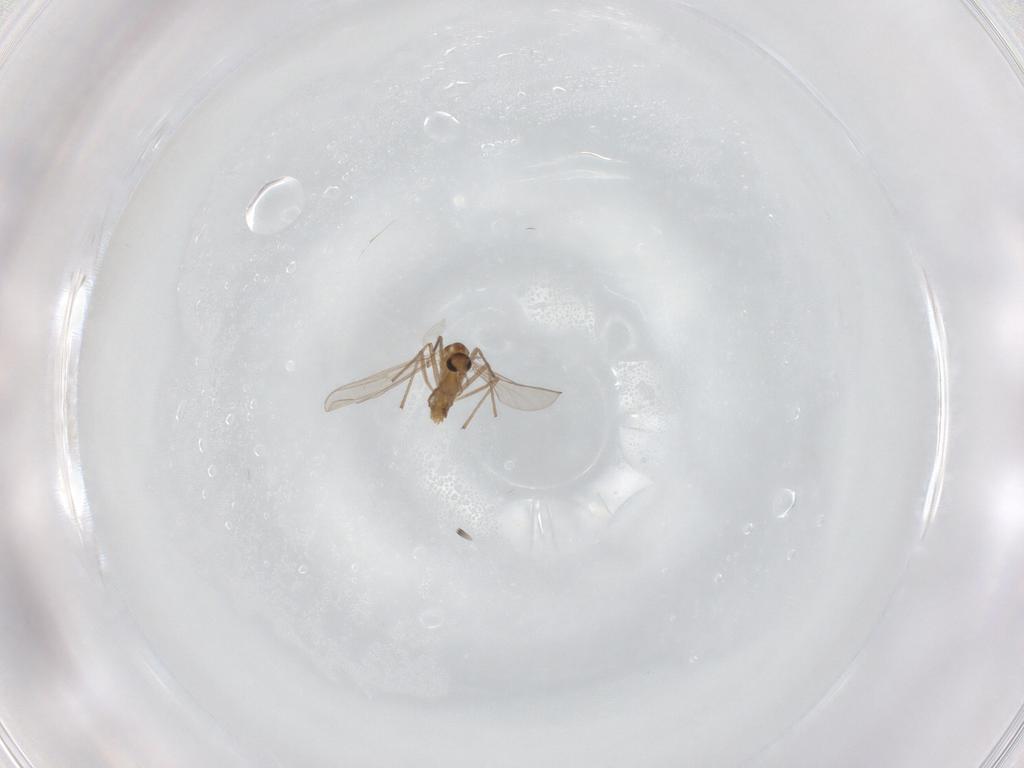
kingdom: Animalia
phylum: Arthropoda
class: Insecta
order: Diptera
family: Chironomidae
